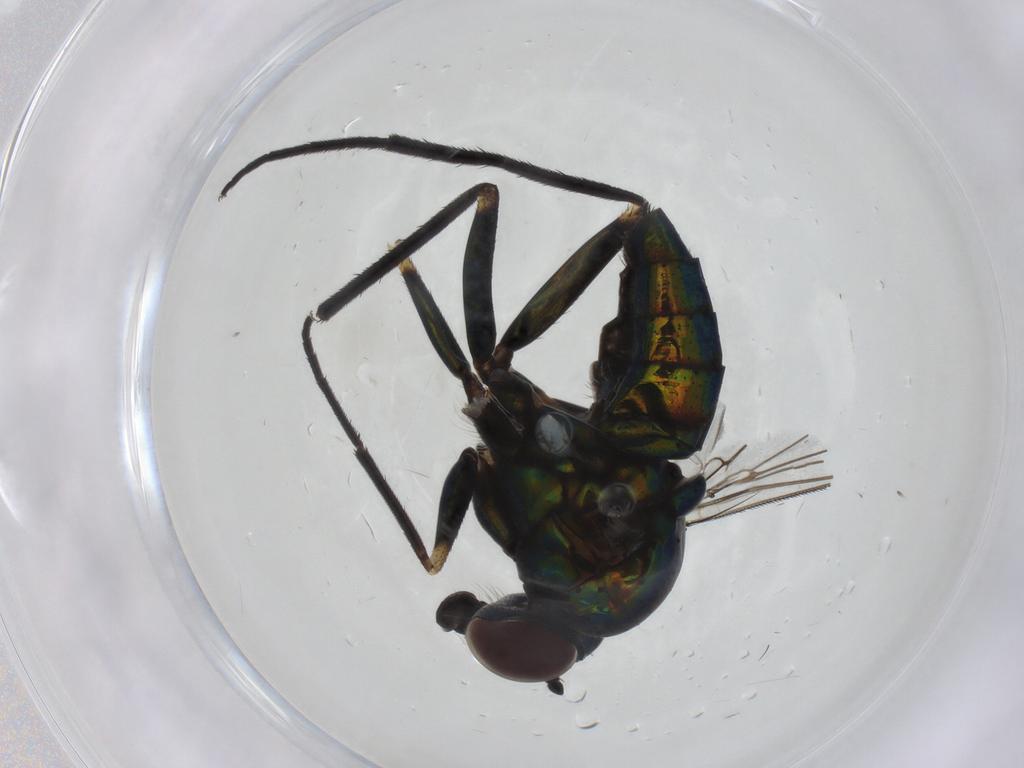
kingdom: Animalia
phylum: Arthropoda
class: Insecta
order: Diptera
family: Dolichopodidae
